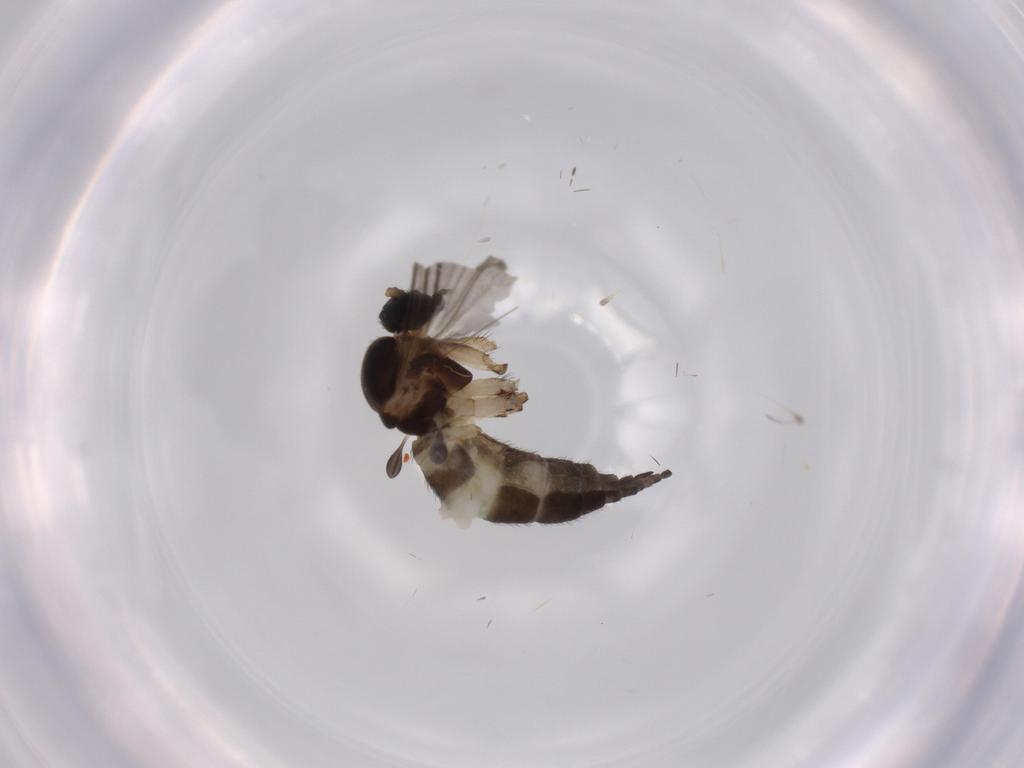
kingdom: Animalia
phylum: Arthropoda
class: Insecta
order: Diptera
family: Sciaridae
